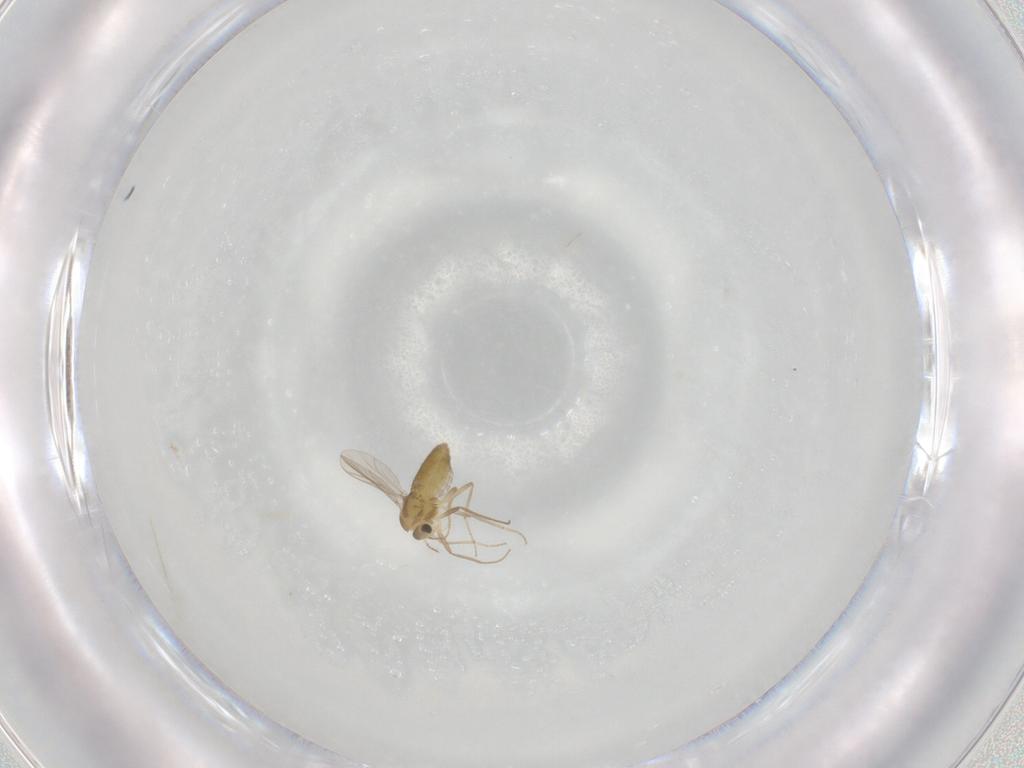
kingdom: Animalia
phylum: Arthropoda
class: Insecta
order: Diptera
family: Chironomidae
